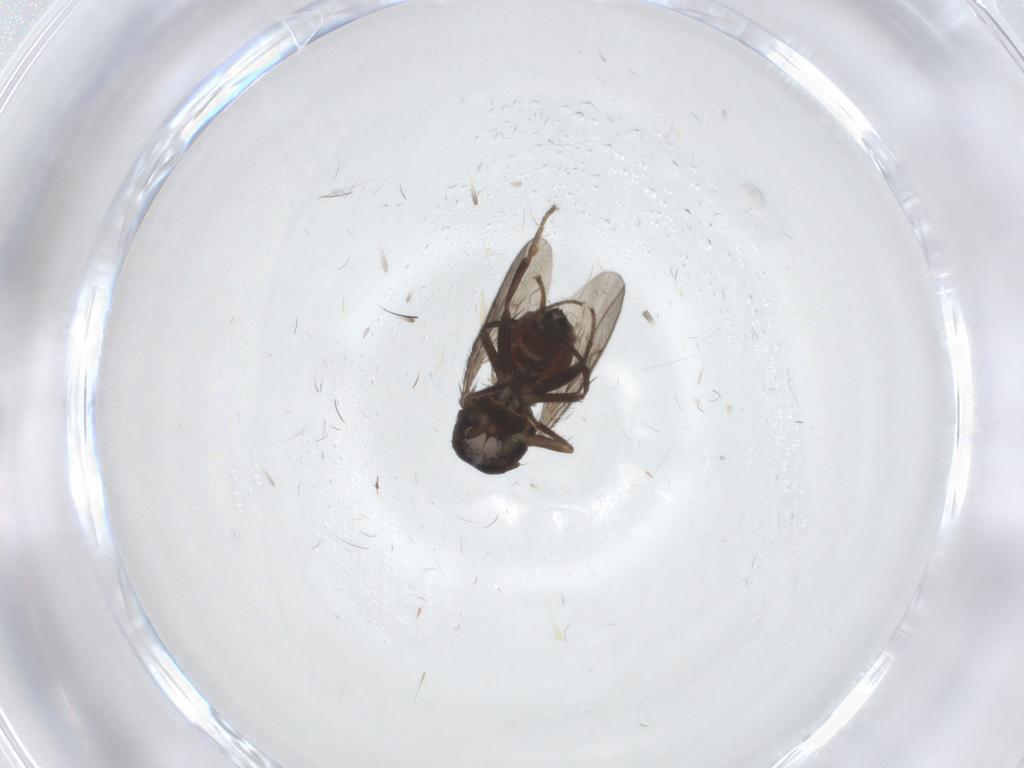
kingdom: Animalia
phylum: Arthropoda
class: Insecta
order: Diptera
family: Sphaeroceridae
